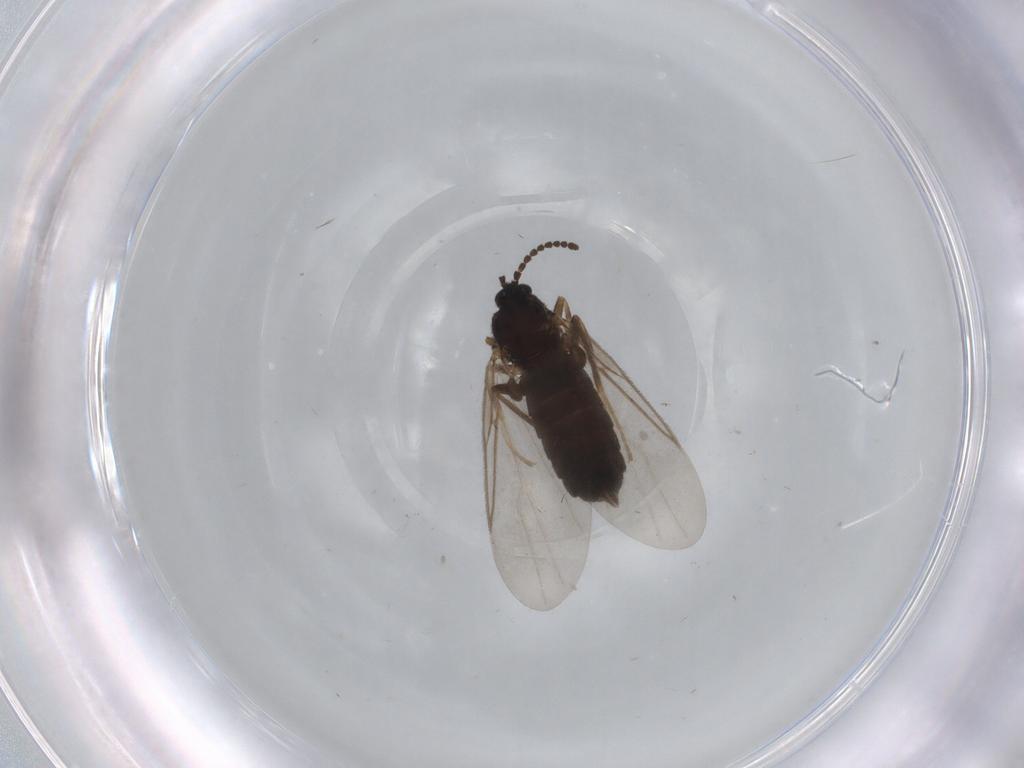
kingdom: Animalia
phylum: Arthropoda
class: Insecta
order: Diptera
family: Scatopsidae
